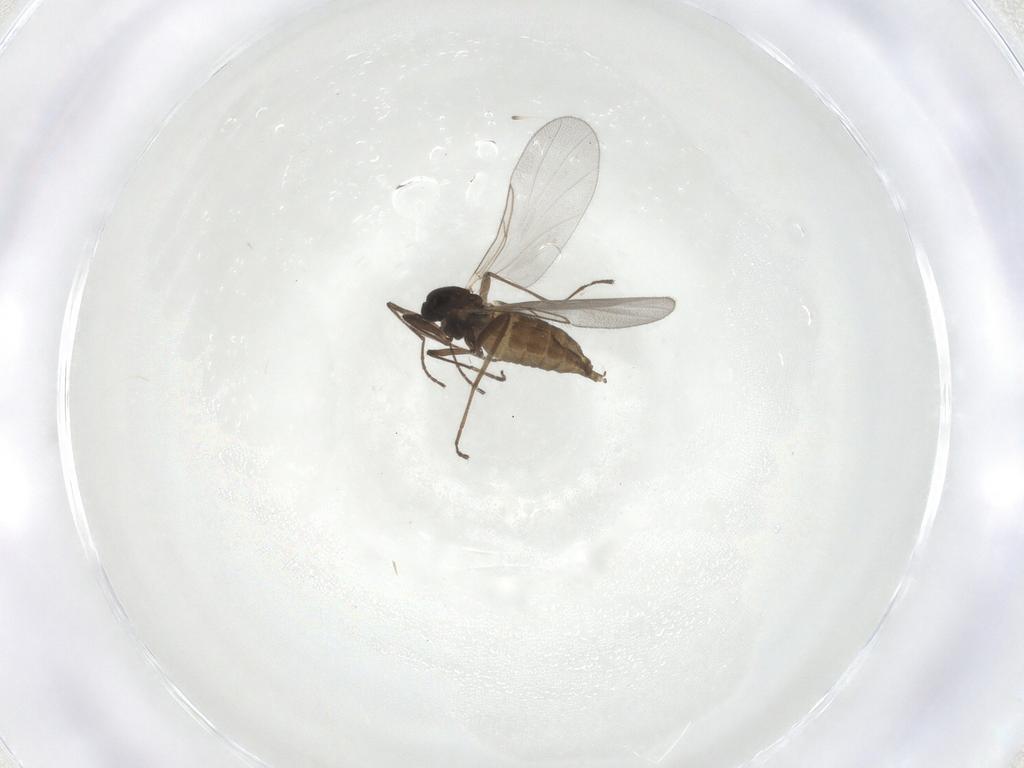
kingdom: Animalia
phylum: Arthropoda
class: Insecta
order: Diptera
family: Cecidomyiidae
